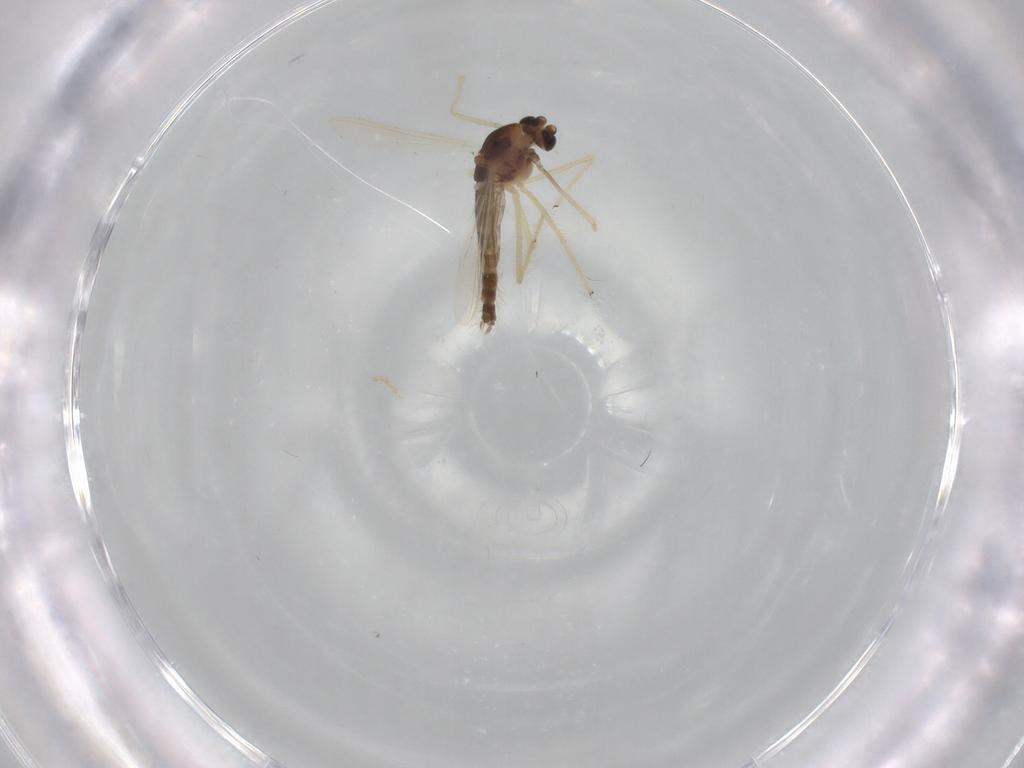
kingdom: Animalia
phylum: Arthropoda
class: Insecta
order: Diptera
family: Chironomidae
